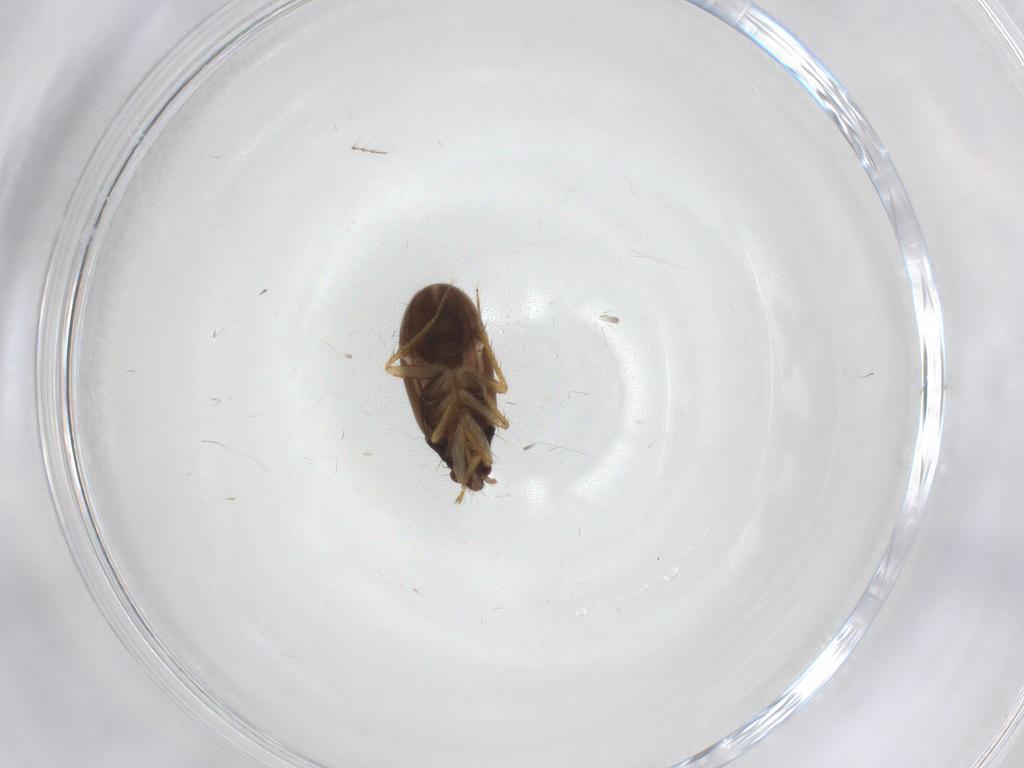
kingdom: Animalia
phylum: Arthropoda
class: Insecta
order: Hemiptera
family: Ceratocombidae
